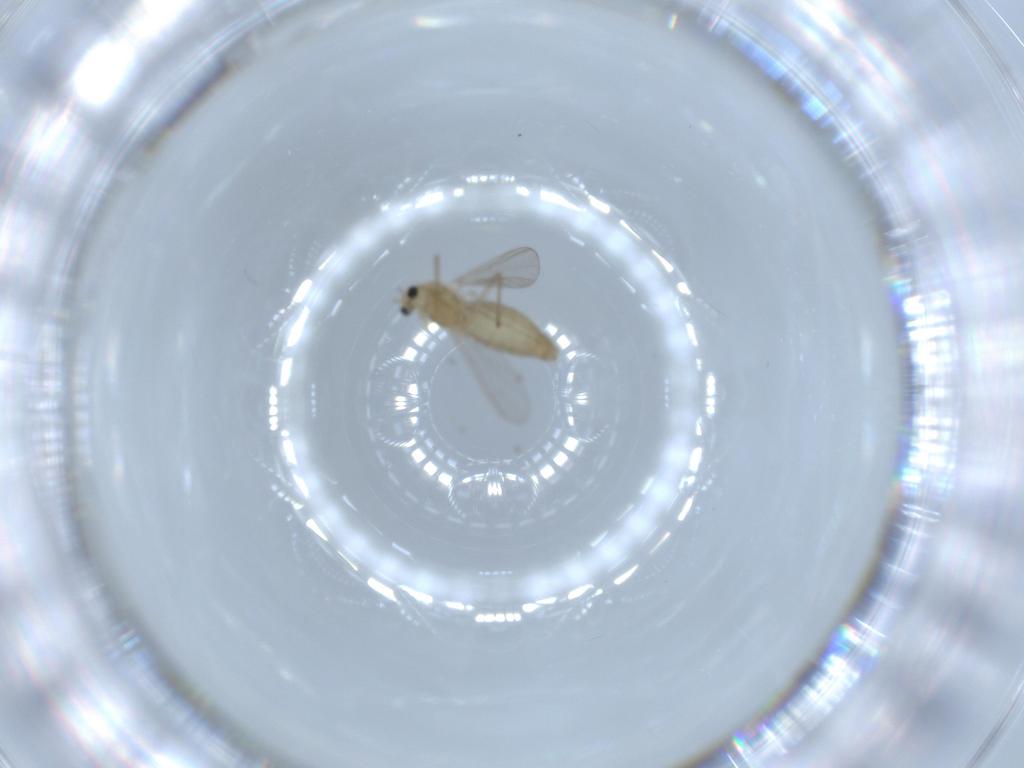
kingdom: Animalia
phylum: Arthropoda
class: Insecta
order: Diptera
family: Chironomidae
